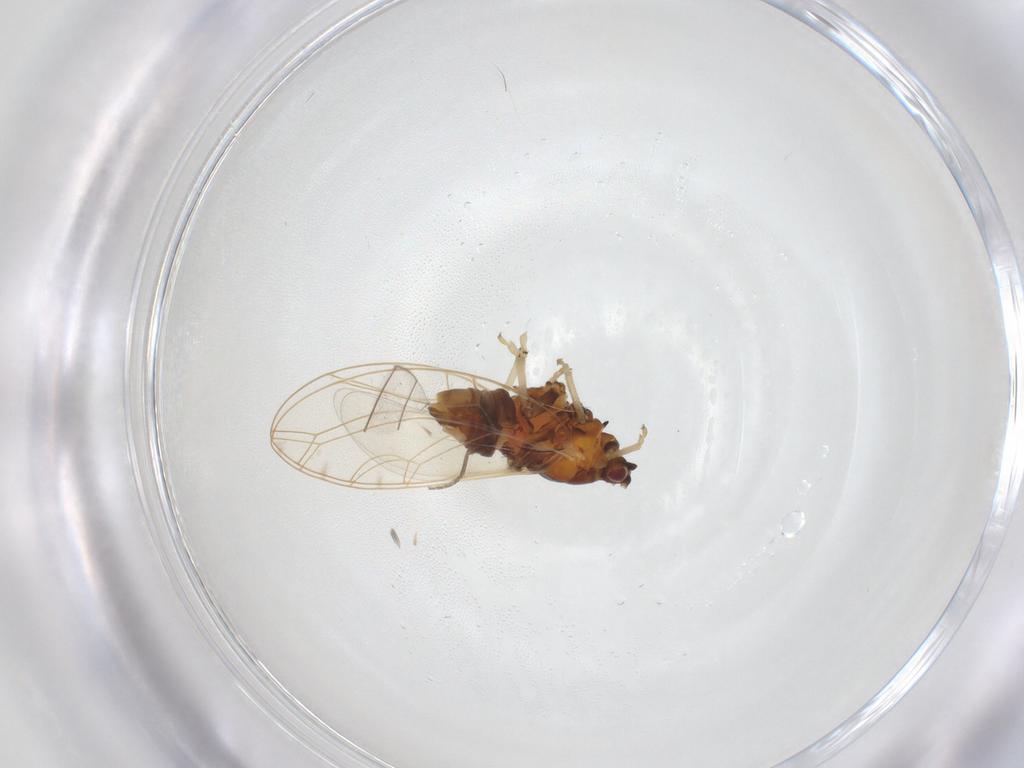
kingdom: Animalia
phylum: Arthropoda
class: Insecta
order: Hemiptera
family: Triozidae
